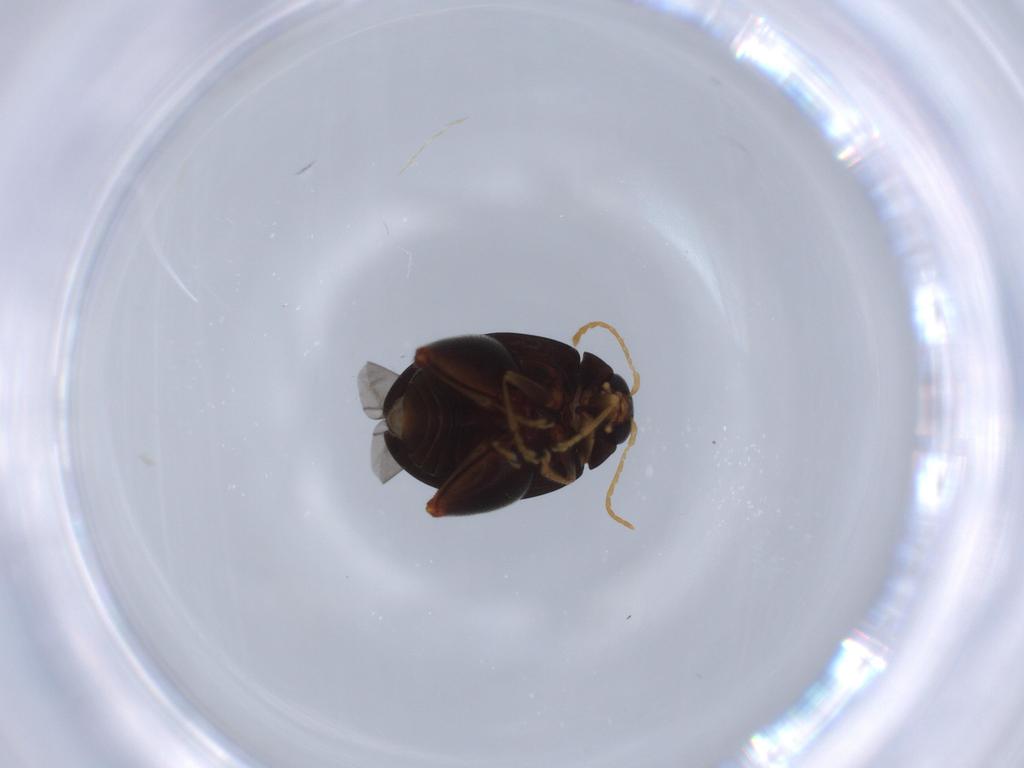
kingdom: Animalia
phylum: Arthropoda
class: Insecta
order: Coleoptera
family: Chrysomelidae
